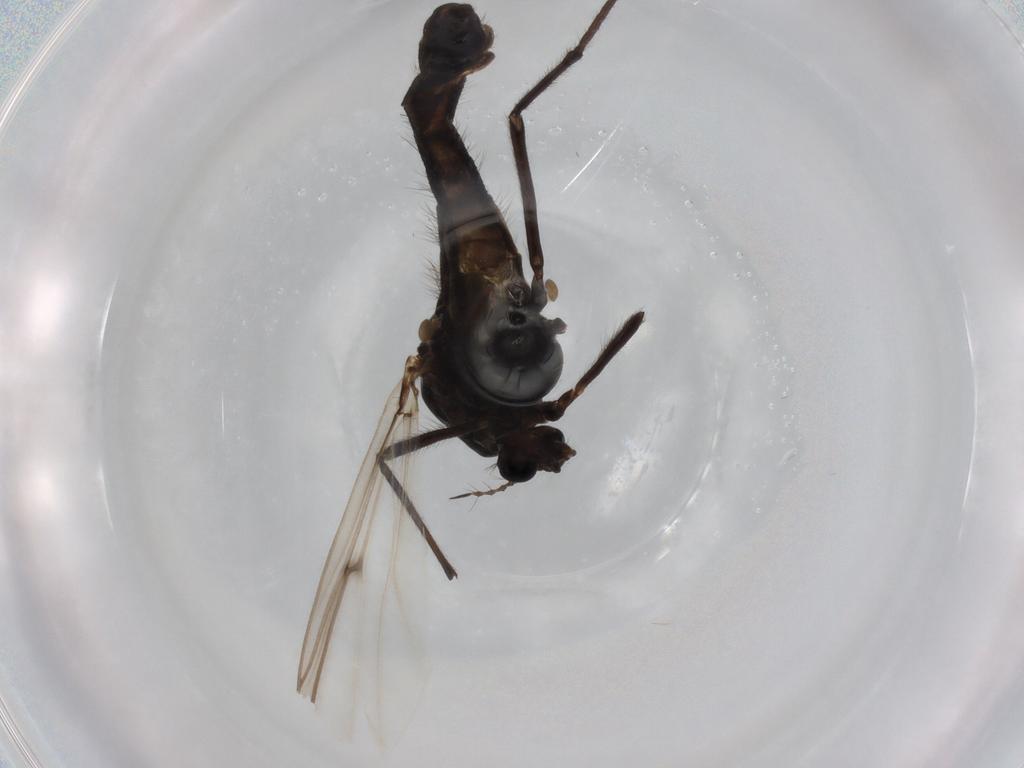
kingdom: Animalia
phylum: Arthropoda
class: Insecta
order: Diptera
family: Chironomidae
